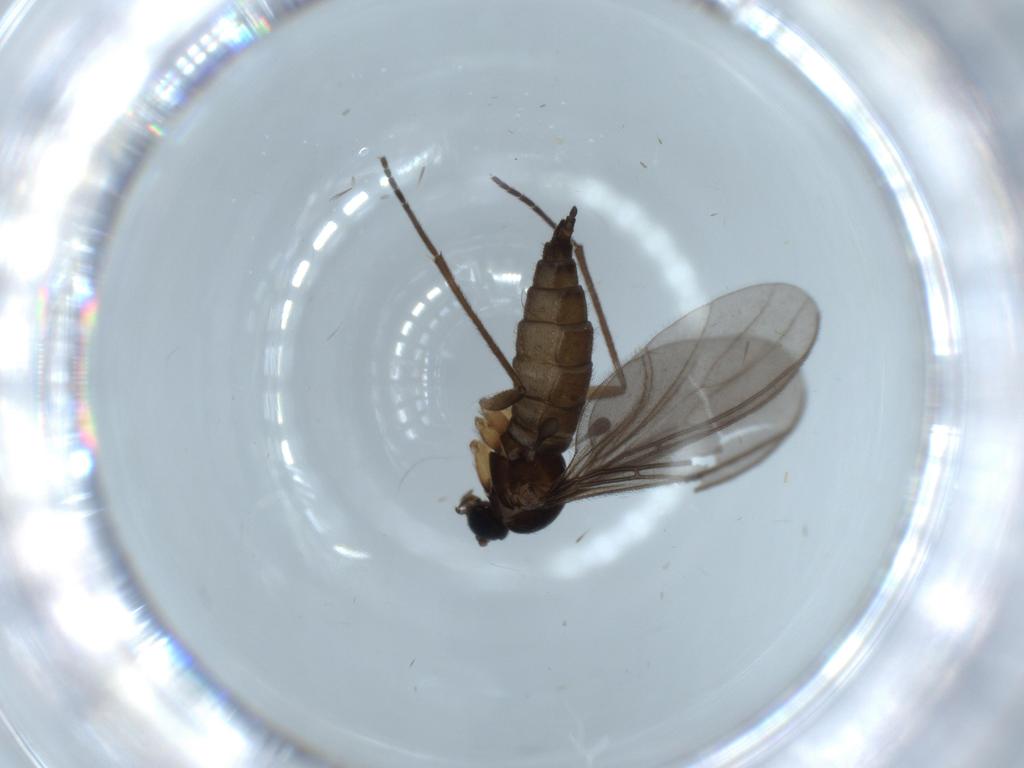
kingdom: Animalia
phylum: Arthropoda
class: Insecta
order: Diptera
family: Sciaridae
